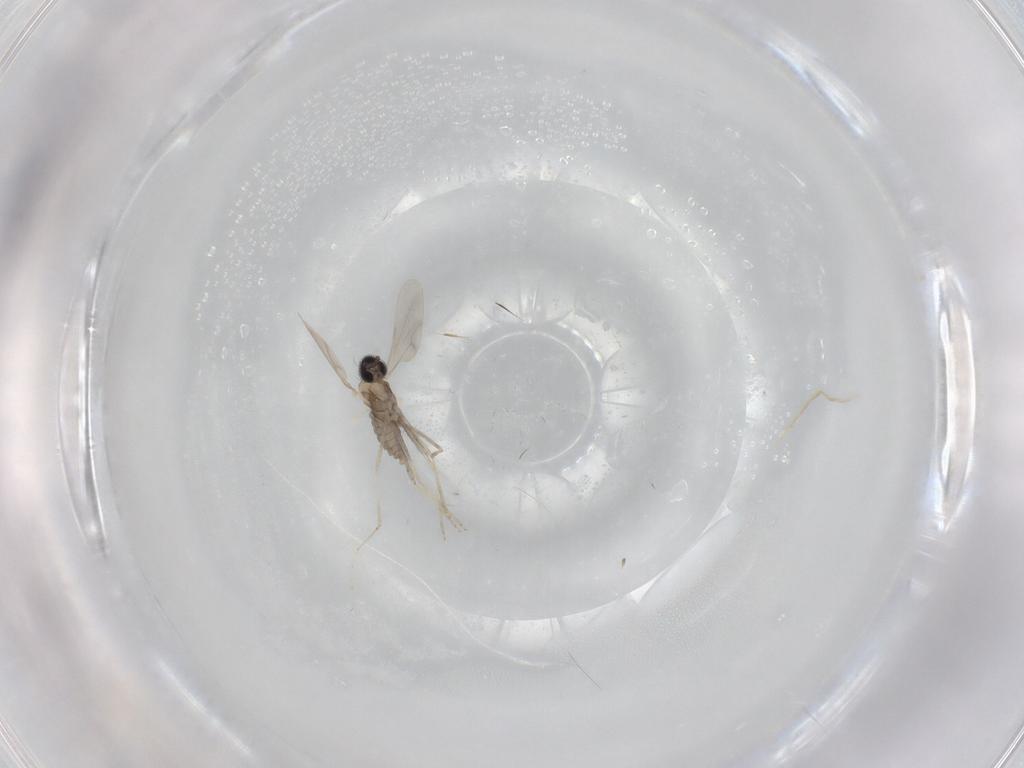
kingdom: Animalia
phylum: Arthropoda
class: Insecta
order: Diptera
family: Cecidomyiidae
